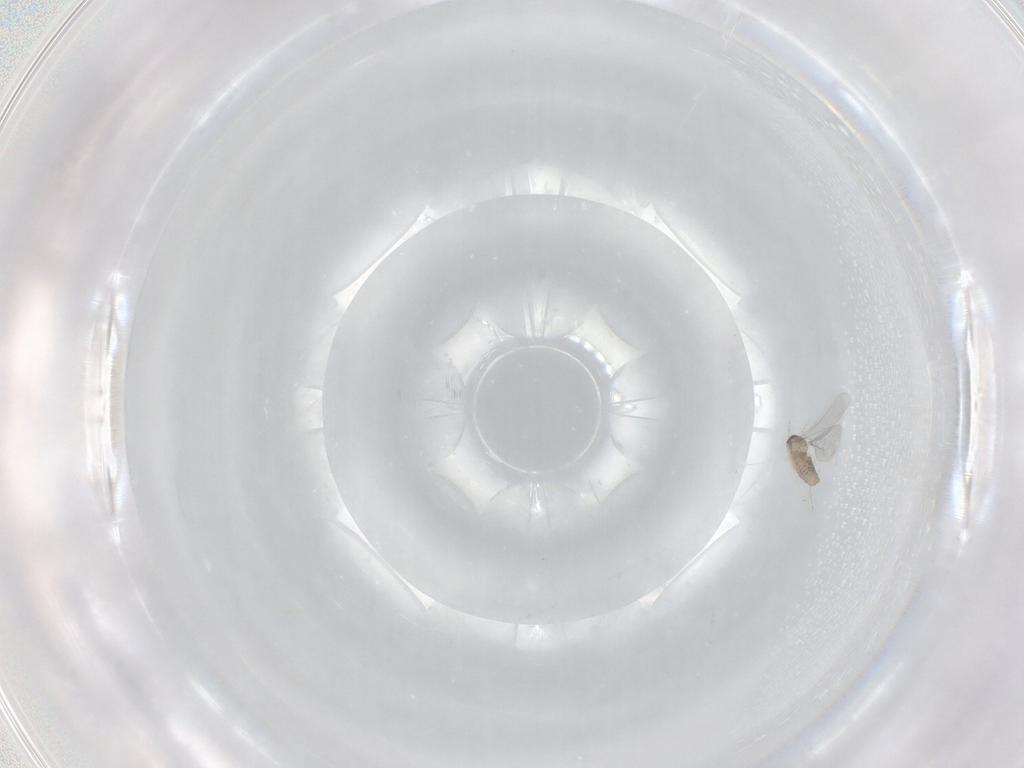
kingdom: Animalia
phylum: Arthropoda
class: Insecta
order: Diptera
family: Cecidomyiidae
